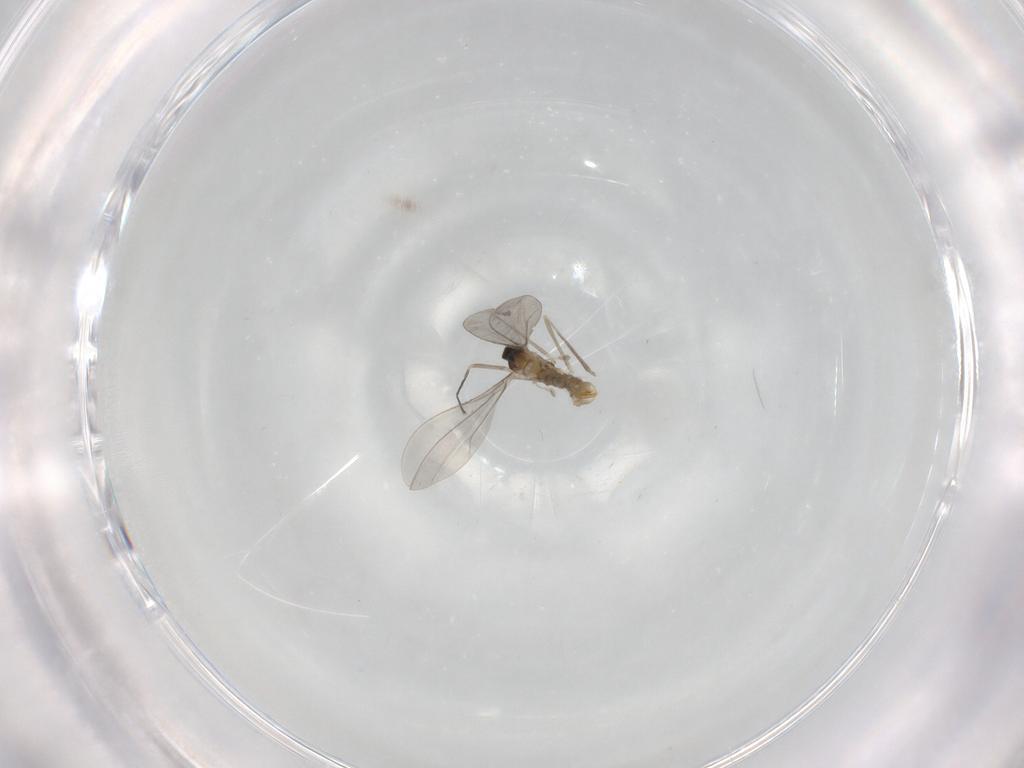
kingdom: Animalia
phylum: Arthropoda
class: Insecta
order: Diptera
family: Cecidomyiidae
